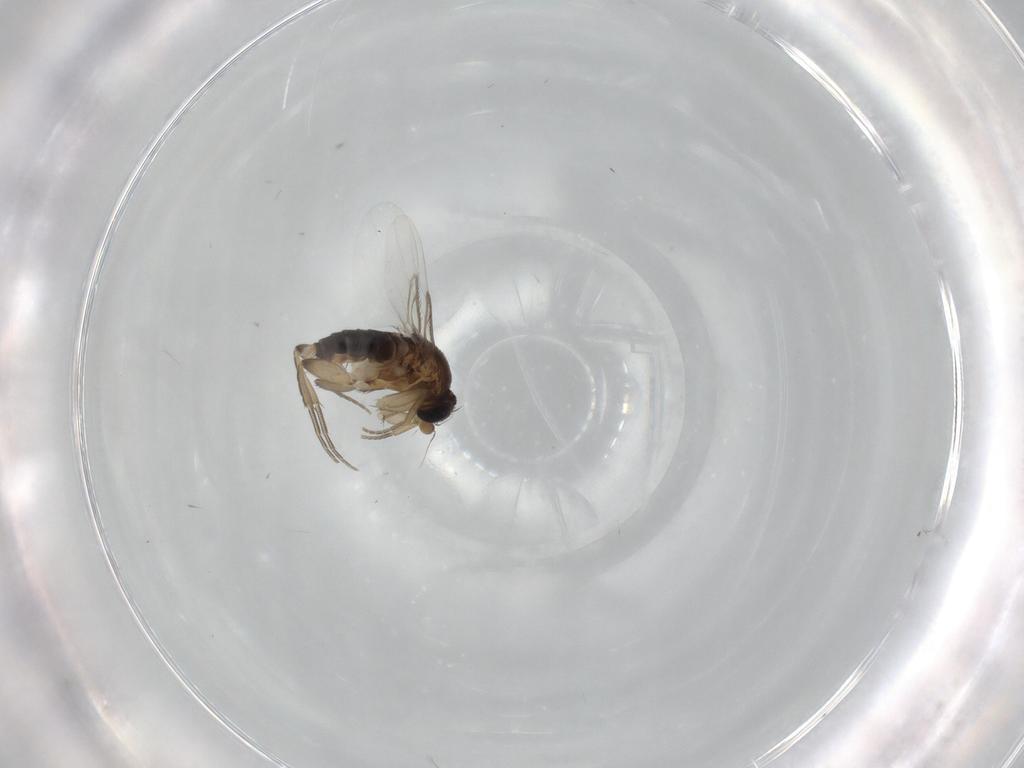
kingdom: Animalia
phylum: Arthropoda
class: Insecta
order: Diptera
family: Phoridae
